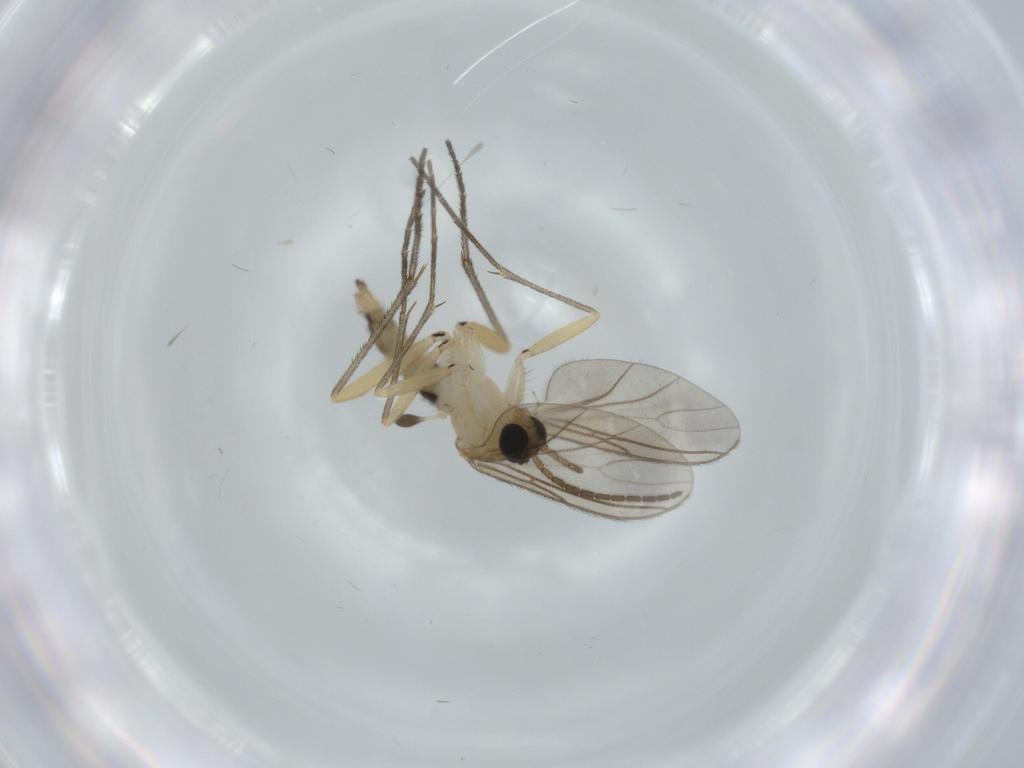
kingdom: Animalia
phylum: Arthropoda
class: Insecta
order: Diptera
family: Sciaridae
